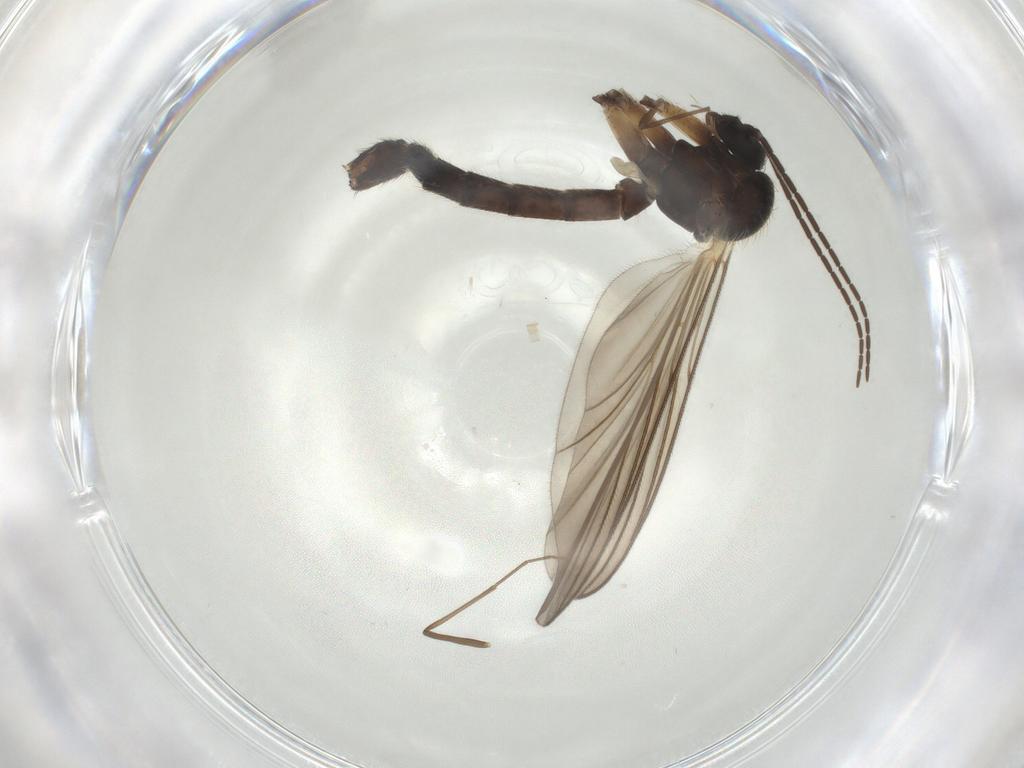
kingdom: Animalia
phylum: Arthropoda
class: Insecta
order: Diptera
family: Chironomidae
